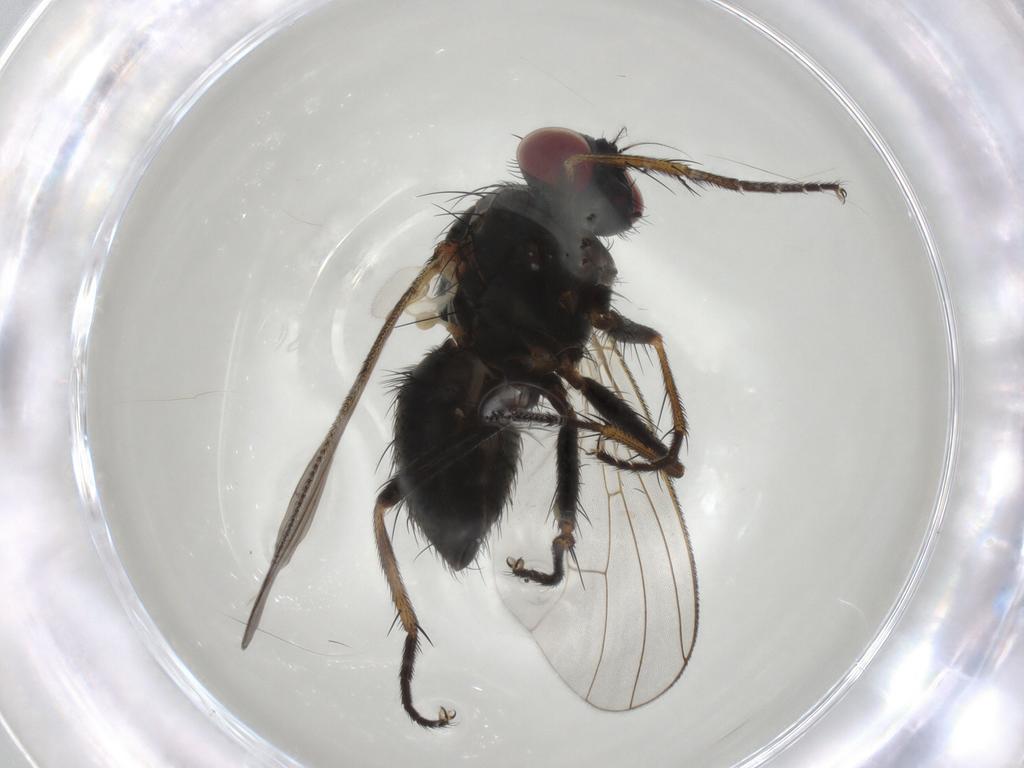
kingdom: Animalia
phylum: Arthropoda
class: Insecta
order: Diptera
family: Muscidae
